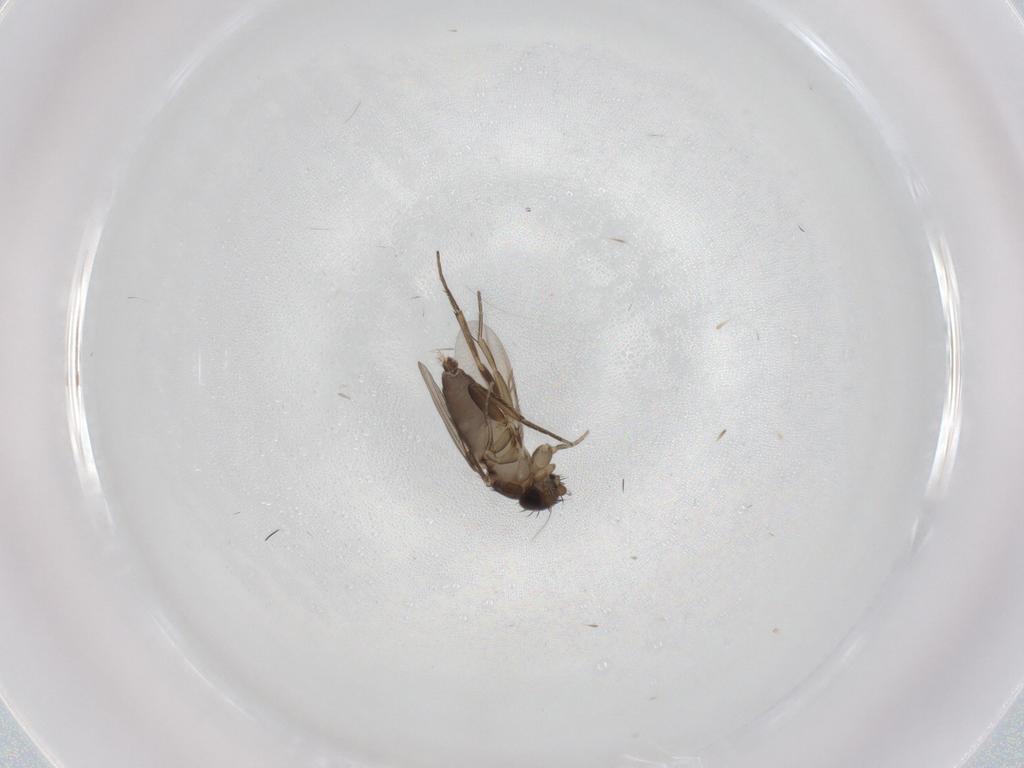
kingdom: Animalia
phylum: Arthropoda
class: Insecta
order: Diptera
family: Phoridae
